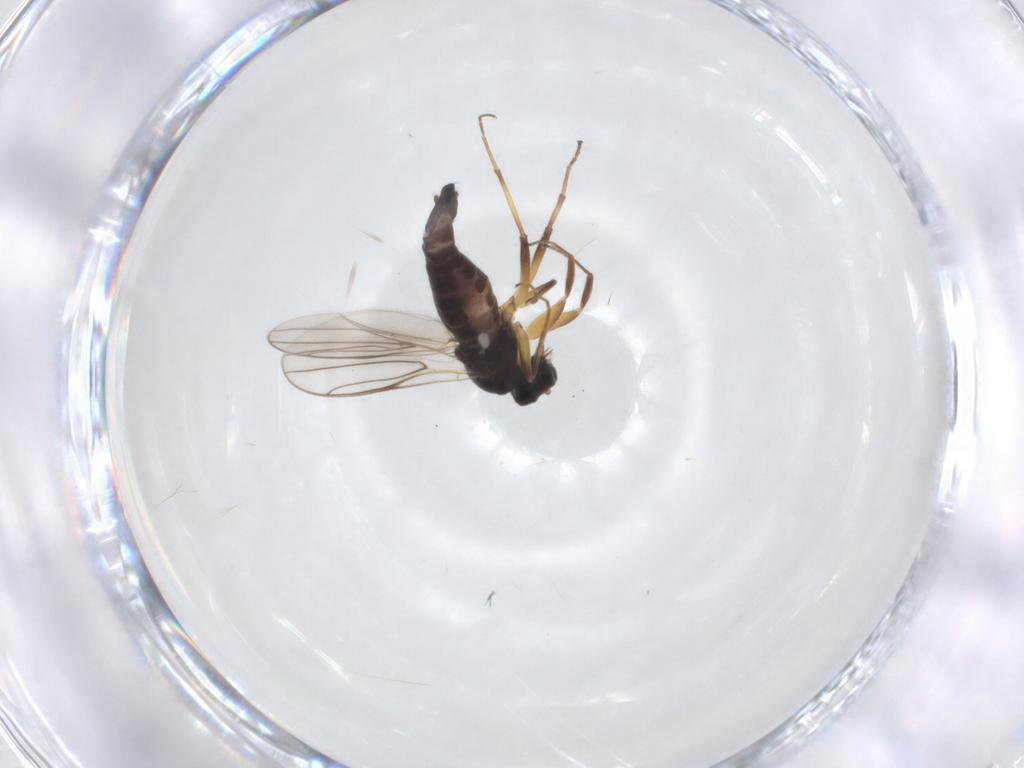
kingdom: Animalia
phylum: Arthropoda
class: Insecta
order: Diptera
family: Hybotidae
